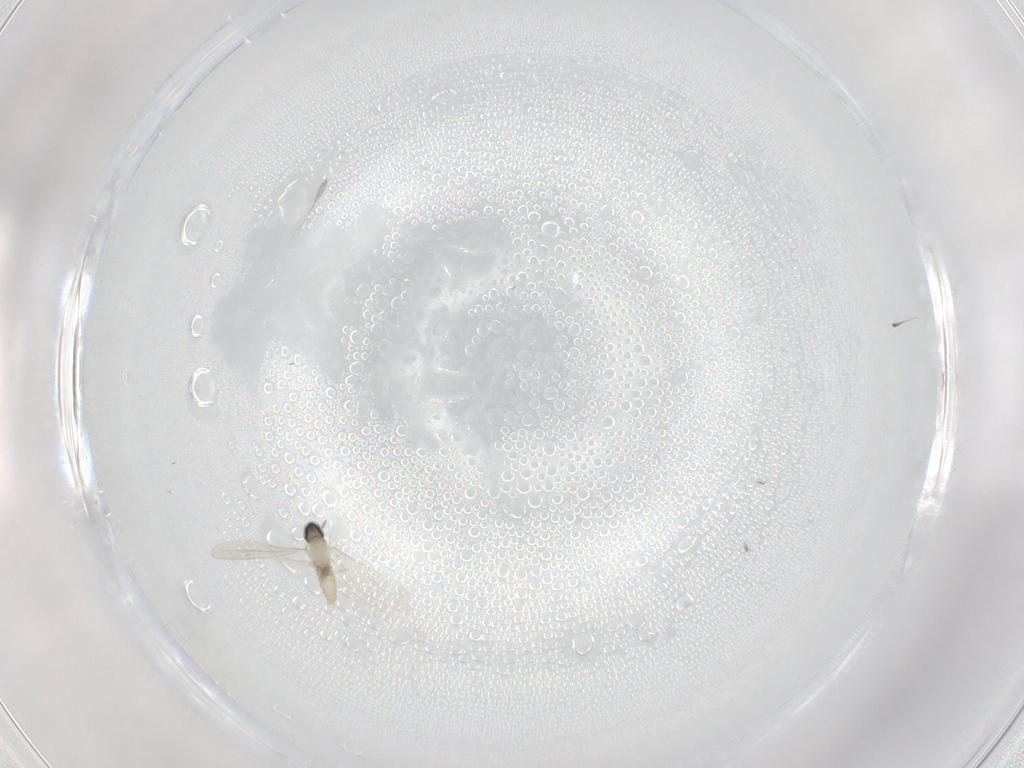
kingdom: Animalia
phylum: Arthropoda
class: Insecta
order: Diptera
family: Cecidomyiidae
